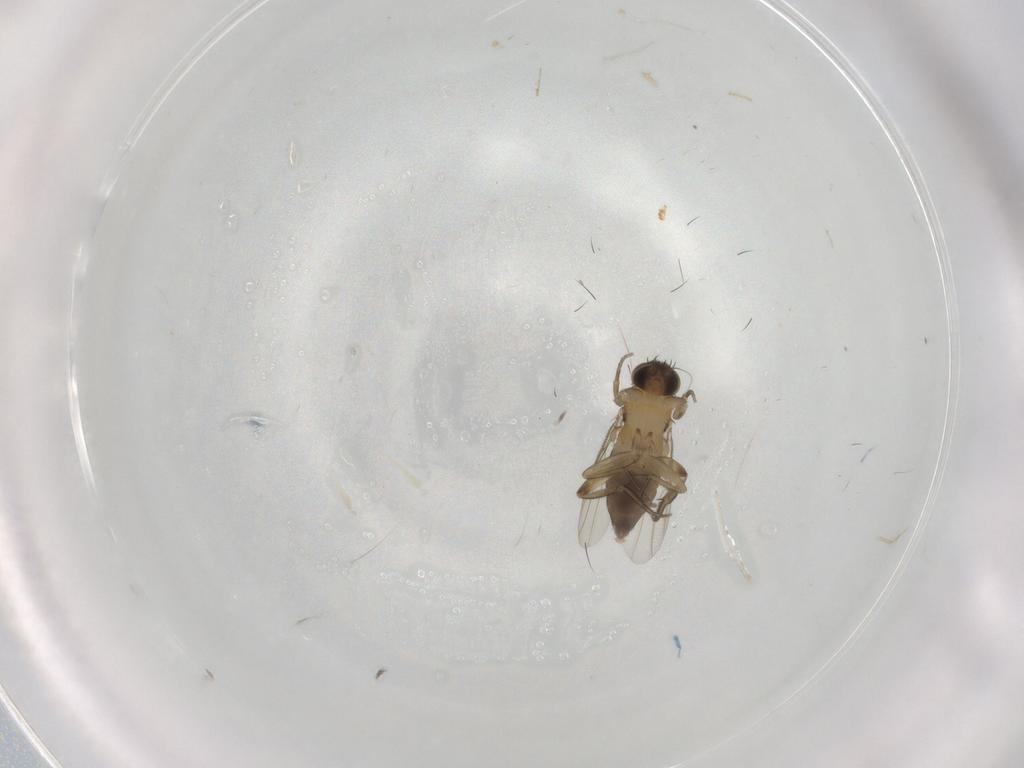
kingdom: Animalia
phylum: Arthropoda
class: Insecta
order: Diptera
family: Phoridae
